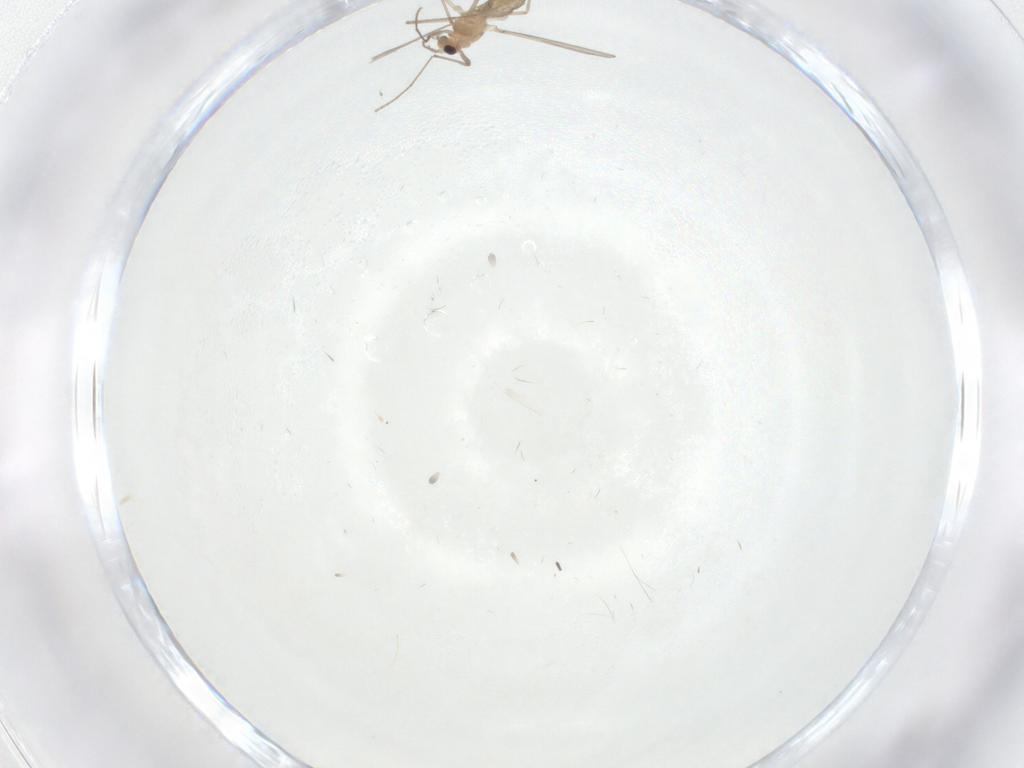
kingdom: Animalia
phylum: Arthropoda
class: Insecta
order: Diptera
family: Chironomidae
